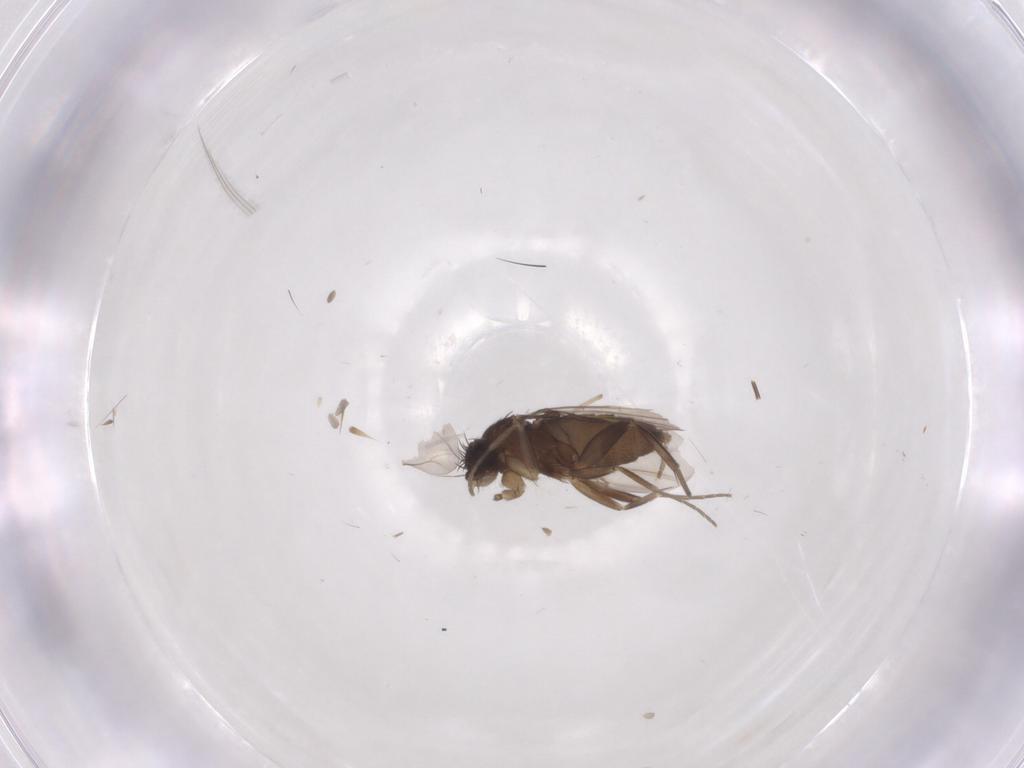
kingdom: Animalia
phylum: Arthropoda
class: Insecta
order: Diptera
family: Phoridae
